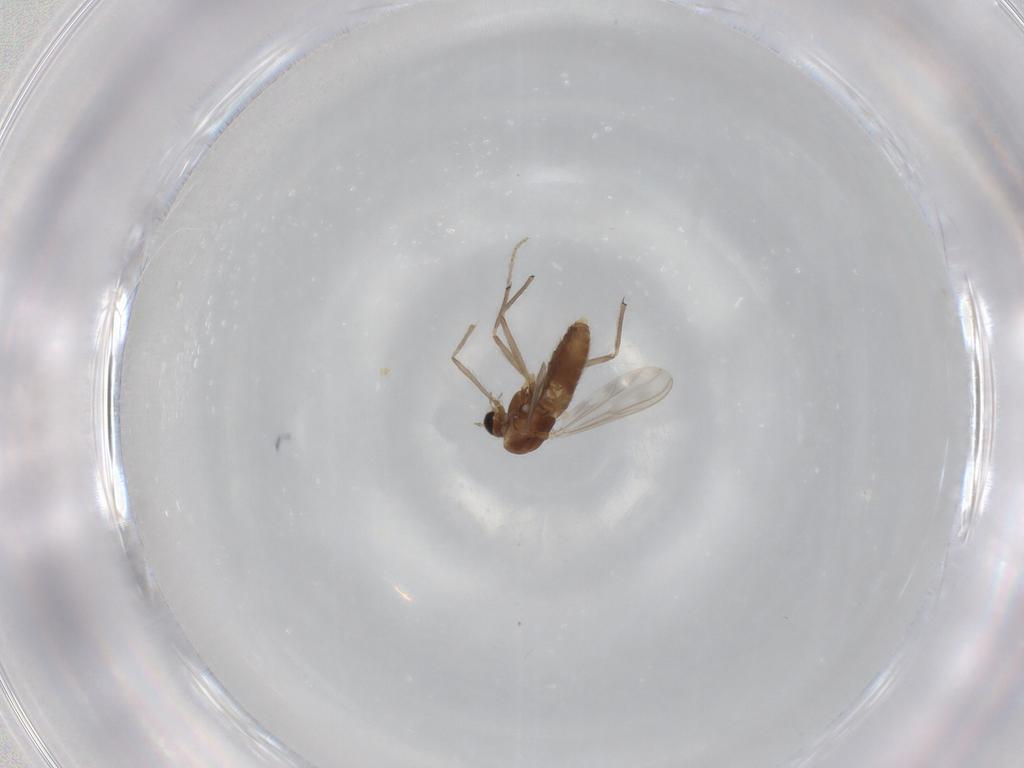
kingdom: Animalia
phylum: Arthropoda
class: Insecta
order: Diptera
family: Chironomidae
